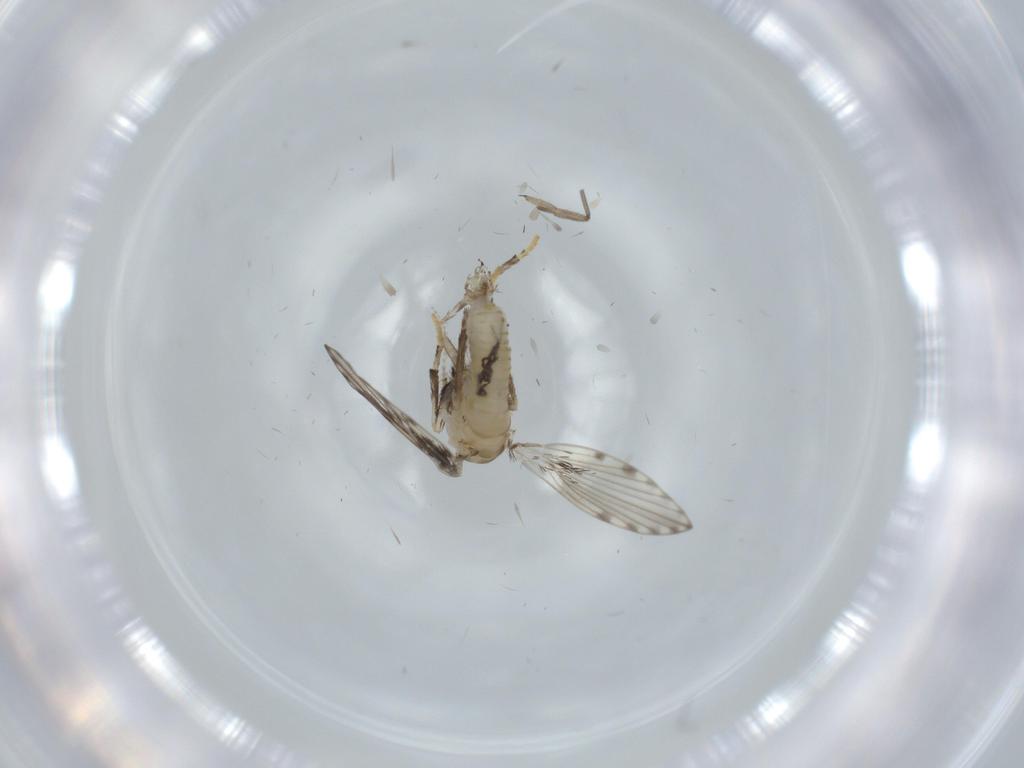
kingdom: Animalia
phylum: Arthropoda
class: Insecta
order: Diptera
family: Psychodidae
